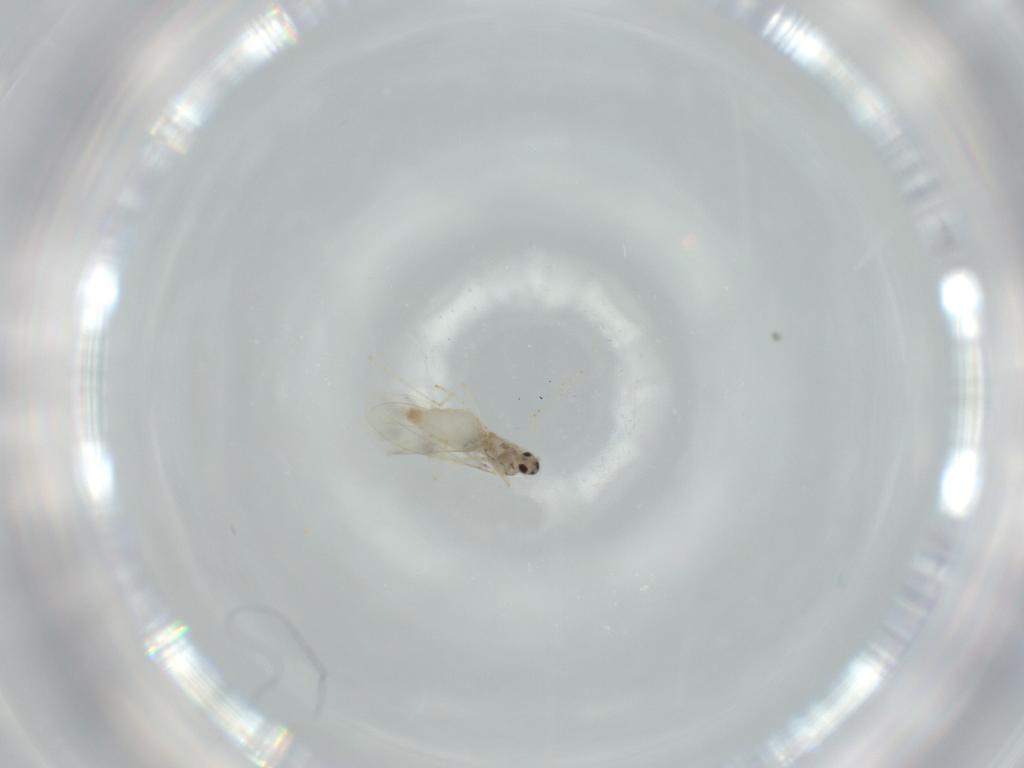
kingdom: Animalia
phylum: Arthropoda
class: Insecta
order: Diptera
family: Cecidomyiidae
